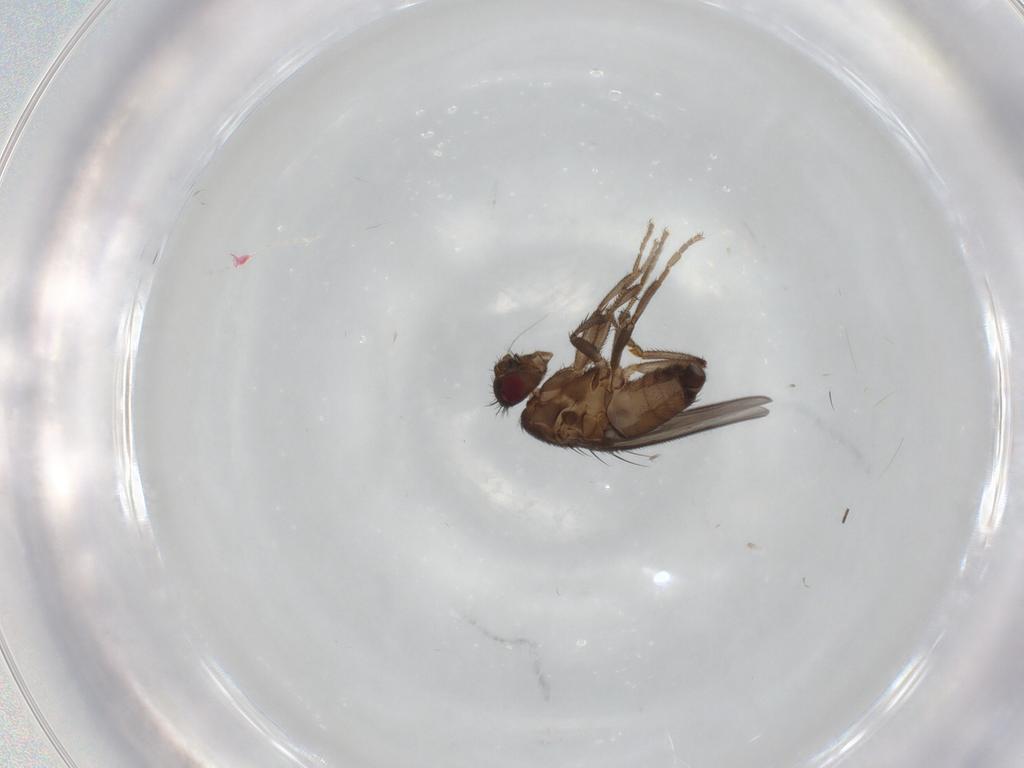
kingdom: Animalia
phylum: Arthropoda
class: Insecta
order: Diptera
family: Sphaeroceridae
